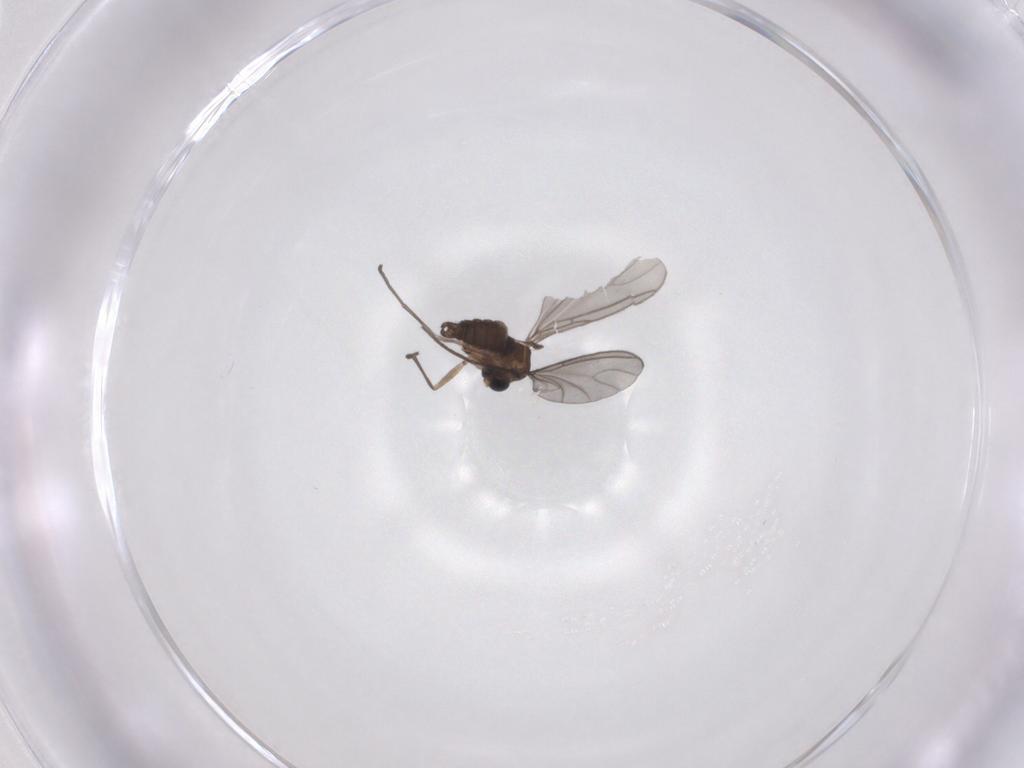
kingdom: Animalia
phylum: Arthropoda
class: Insecta
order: Diptera
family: Sciaridae
